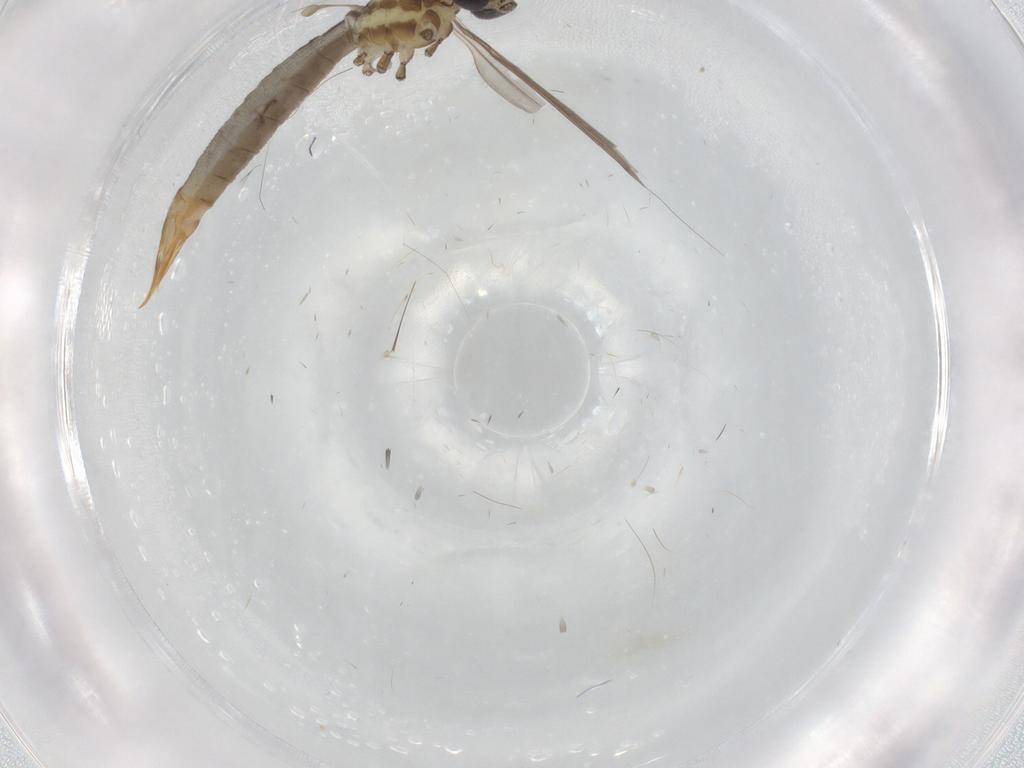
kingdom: Animalia
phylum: Arthropoda
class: Insecta
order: Diptera
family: Limoniidae
